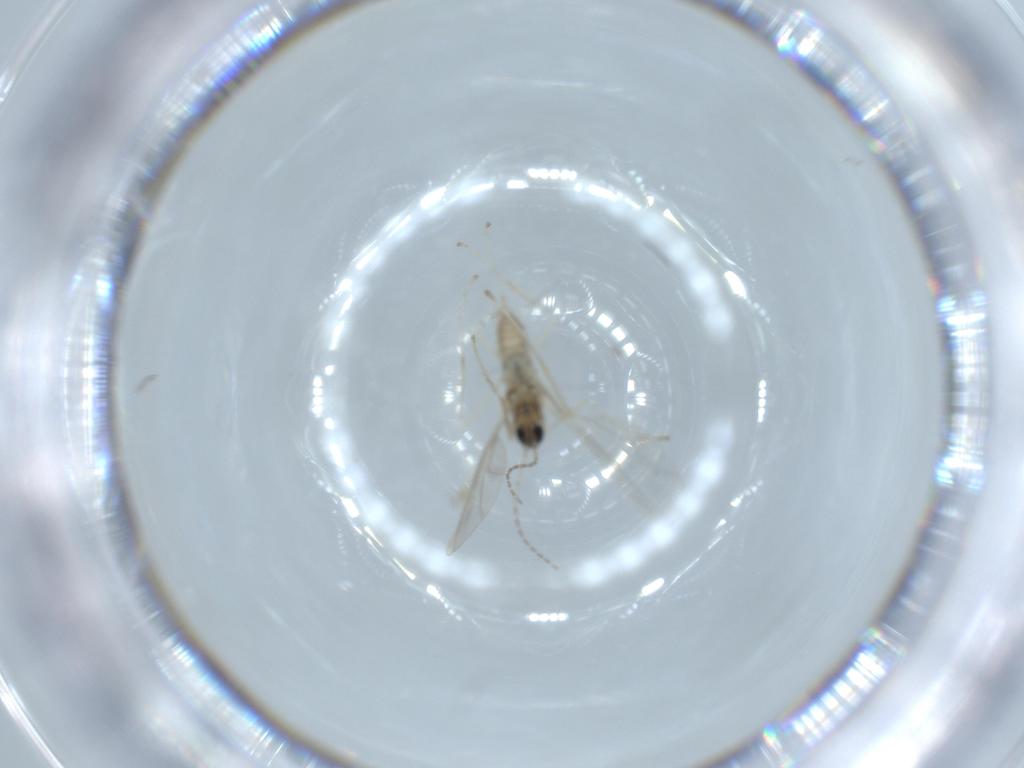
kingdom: Animalia
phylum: Arthropoda
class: Insecta
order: Diptera
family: Cecidomyiidae
